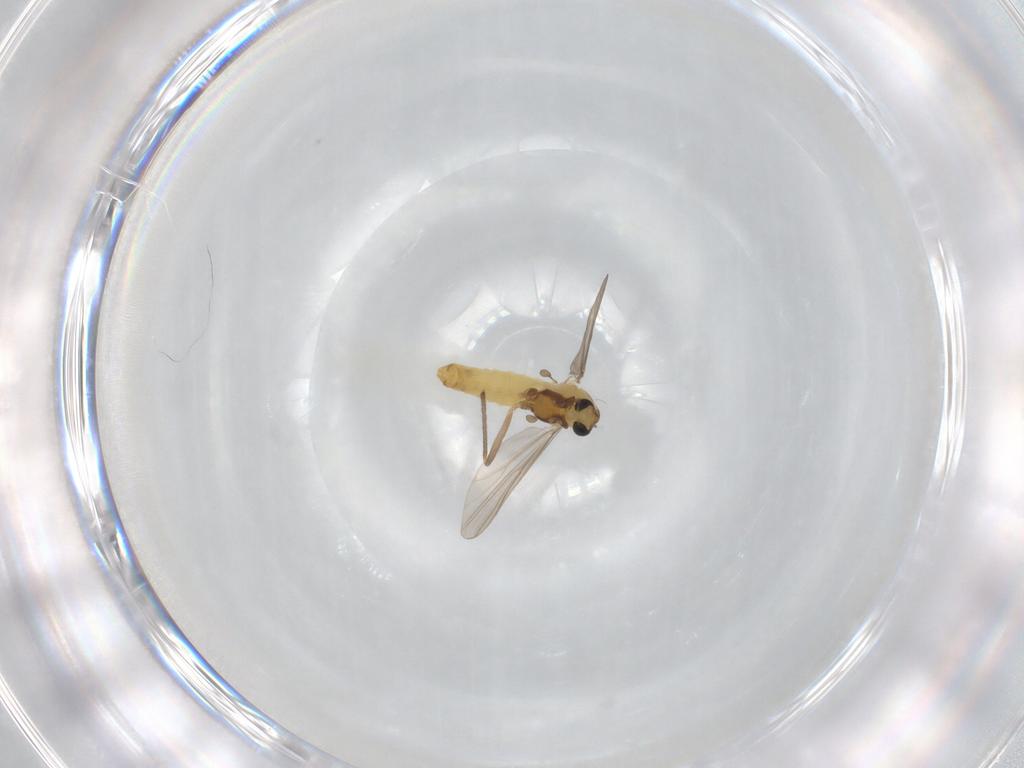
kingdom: Animalia
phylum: Arthropoda
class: Insecta
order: Diptera
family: Chironomidae
